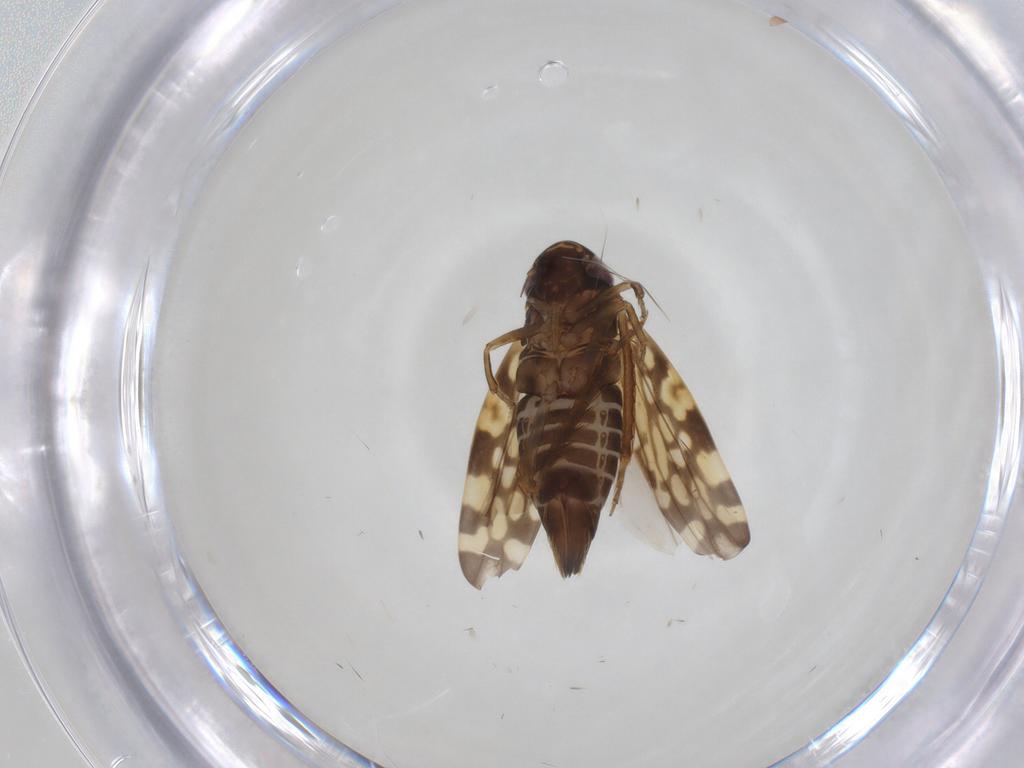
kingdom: Animalia
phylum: Arthropoda
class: Insecta
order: Hemiptera
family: Cicadellidae
